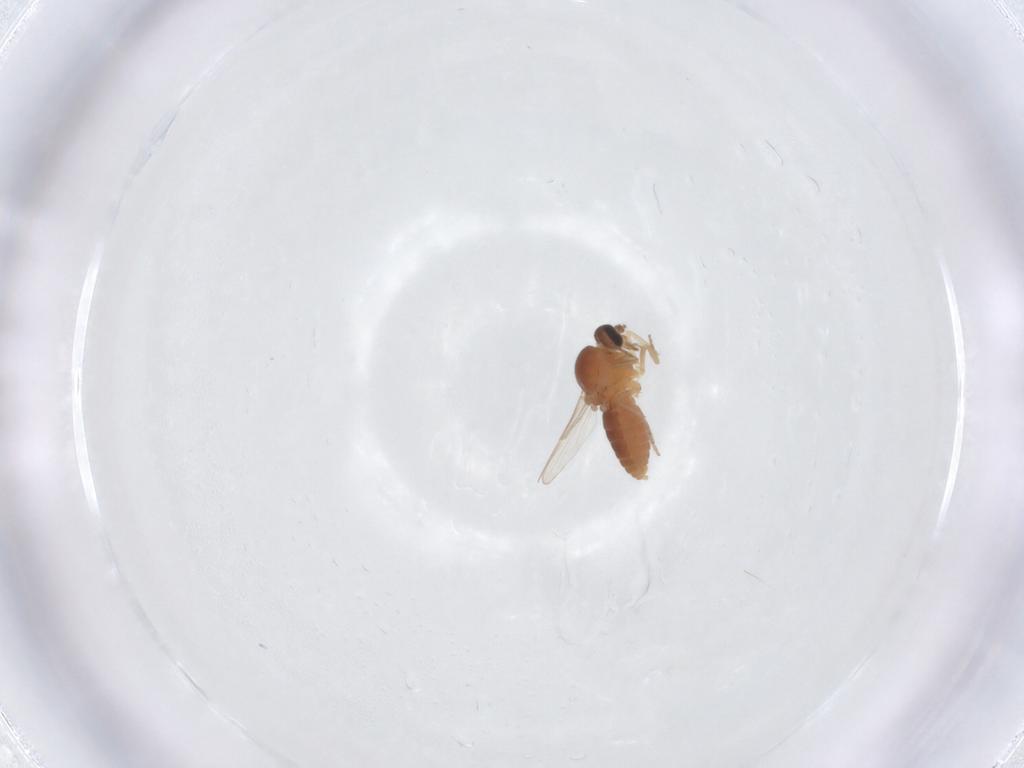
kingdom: Animalia
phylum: Arthropoda
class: Insecta
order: Diptera
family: Ceratopogonidae
